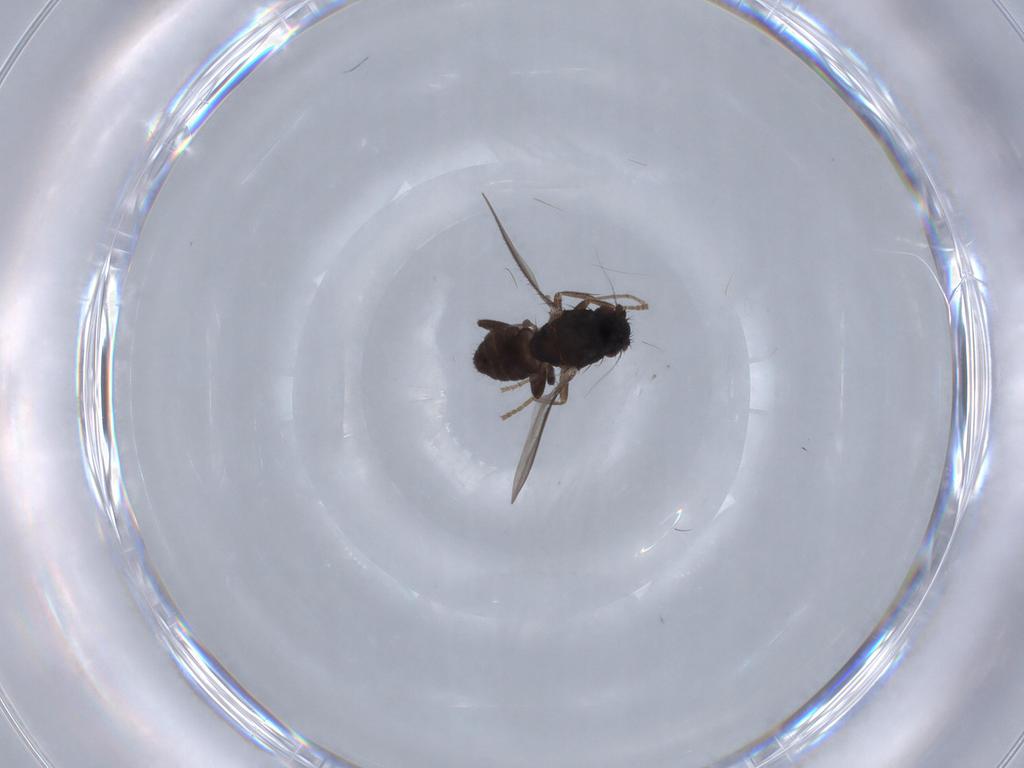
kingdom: Animalia
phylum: Arthropoda
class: Insecta
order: Diptera
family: Sphaeroceridae
